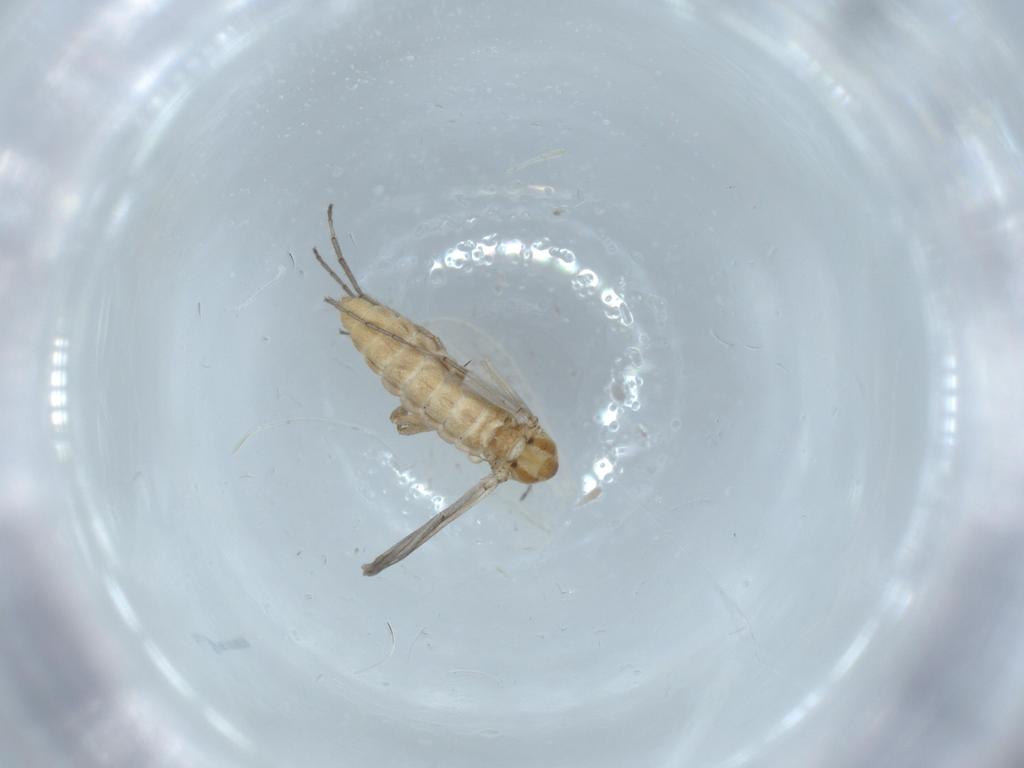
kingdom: Animalia
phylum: Arthropoda
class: Insecta
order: Diptera
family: Chironomidae
